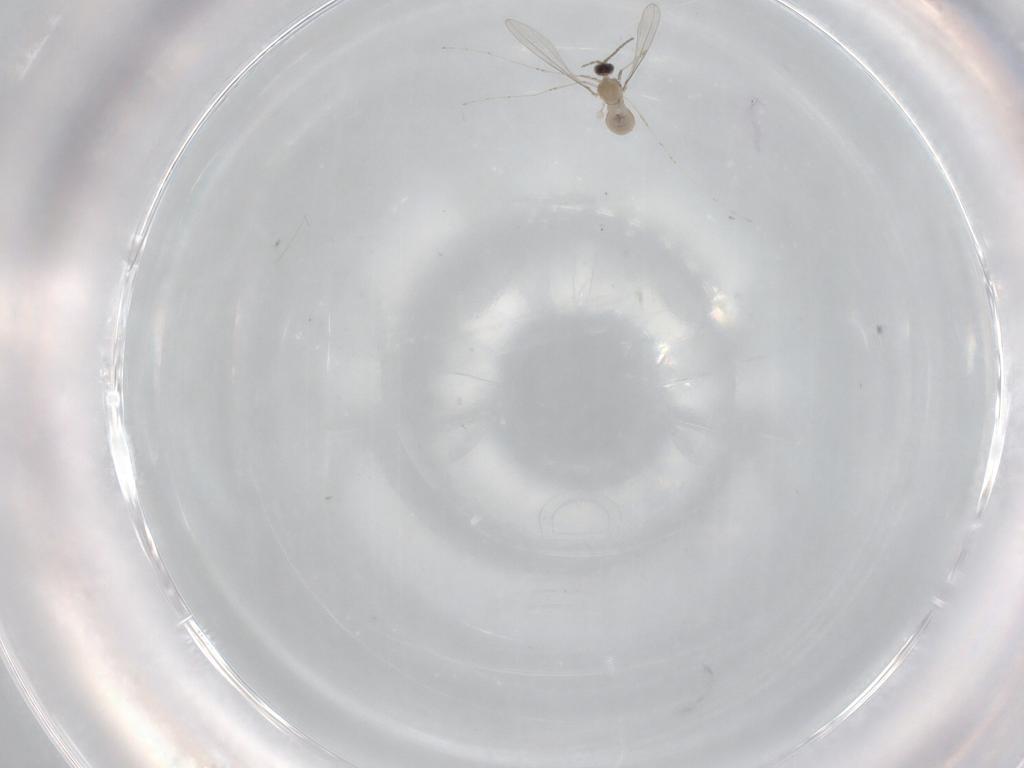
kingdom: Animalia
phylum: Arthropoda
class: Insecta
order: Diptera
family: Cecidomyiidae
